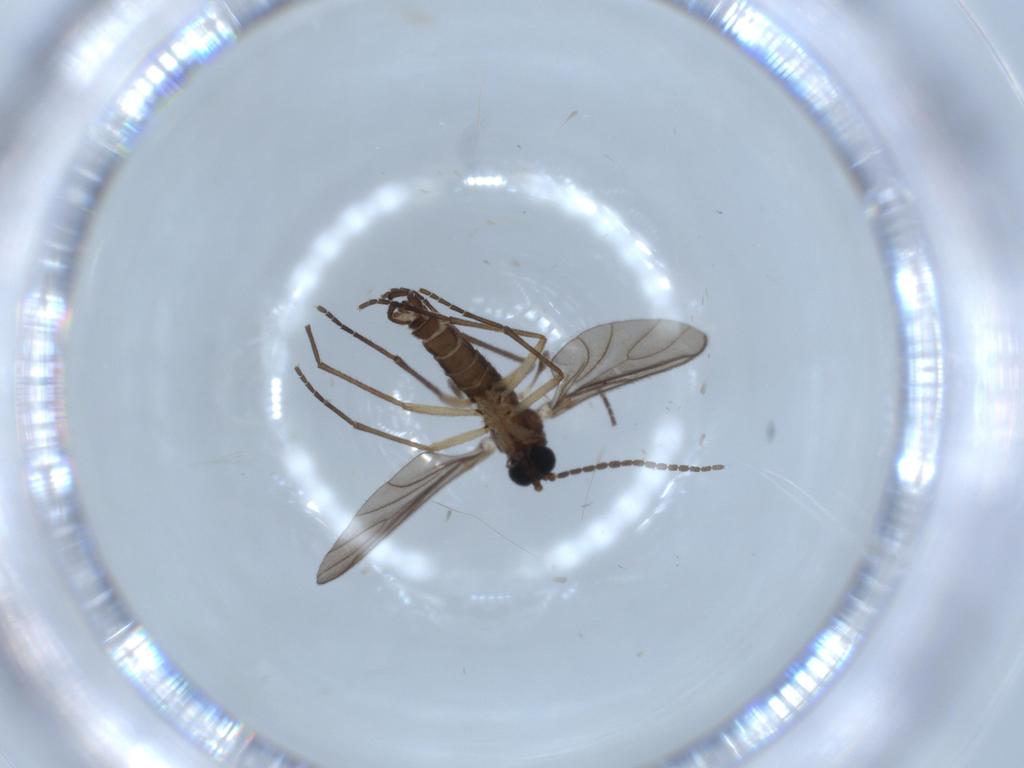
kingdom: Animalia
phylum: Arthropoda
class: Insecta
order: Diptera
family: Sciaridae
